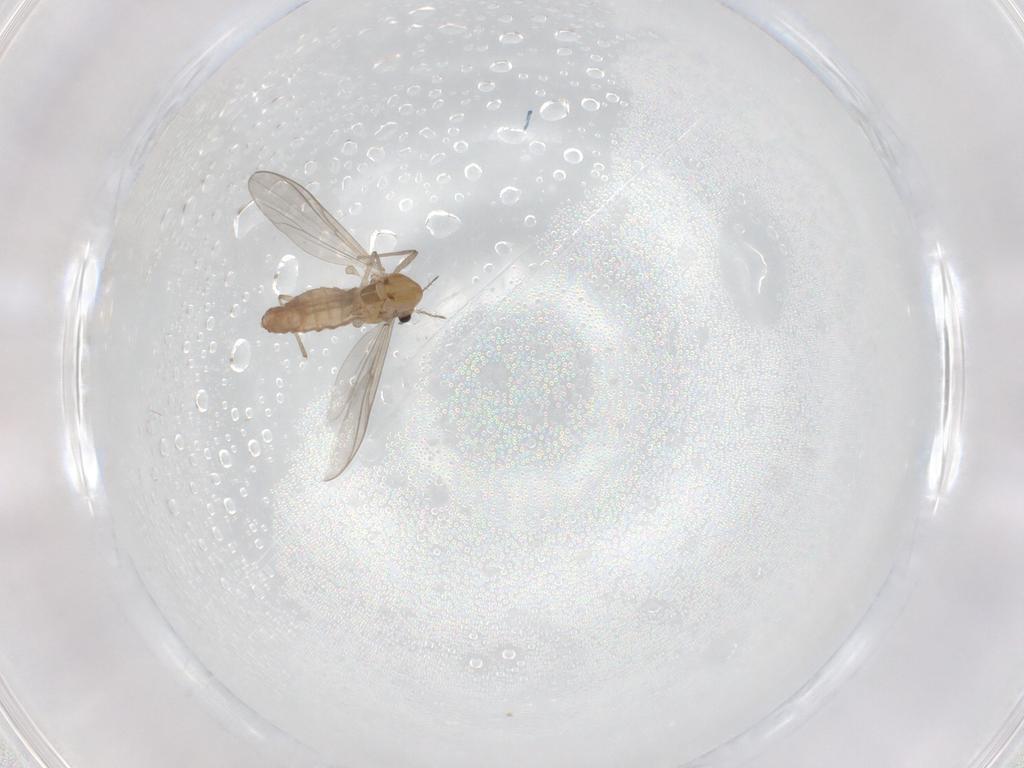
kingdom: Animalia
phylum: Arthropoda
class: Insecta
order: Diptera
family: Chironomidae
